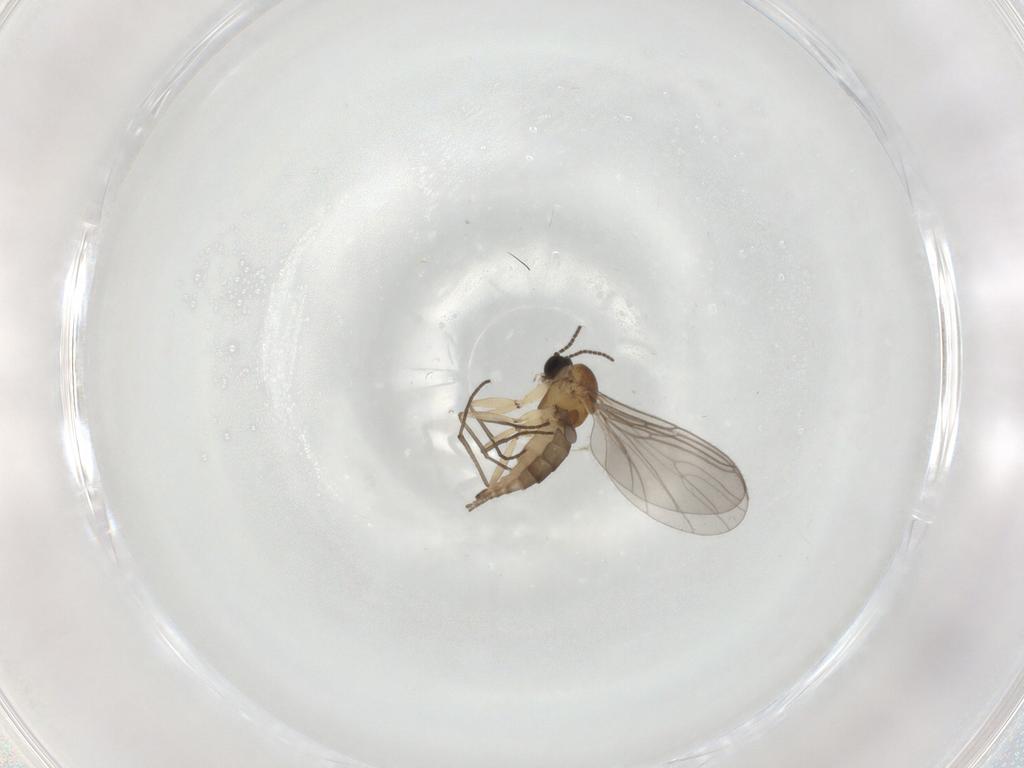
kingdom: Animalia
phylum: Arthropoda
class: Insecta
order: Diptera
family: Sciaridae
